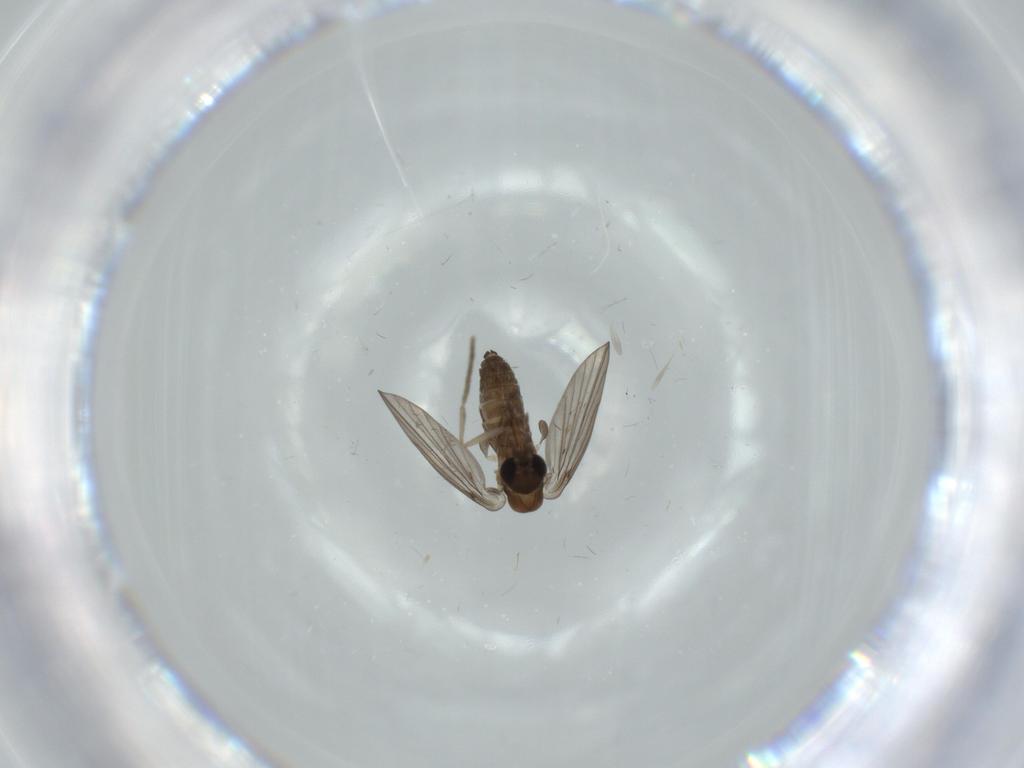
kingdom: Animalia
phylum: Arthropoda
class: Insecta
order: Diptera
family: Psychodidae
